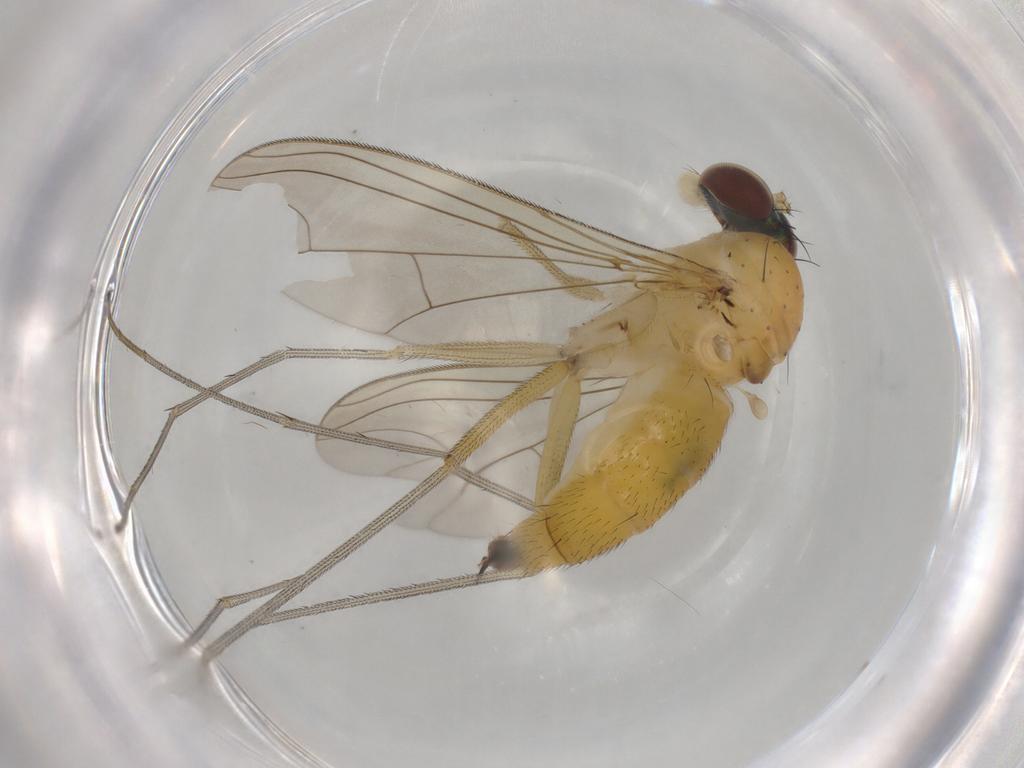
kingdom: Animalia
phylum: Arthropoda
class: Insecta
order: Diptera
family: Dolichopodidae
